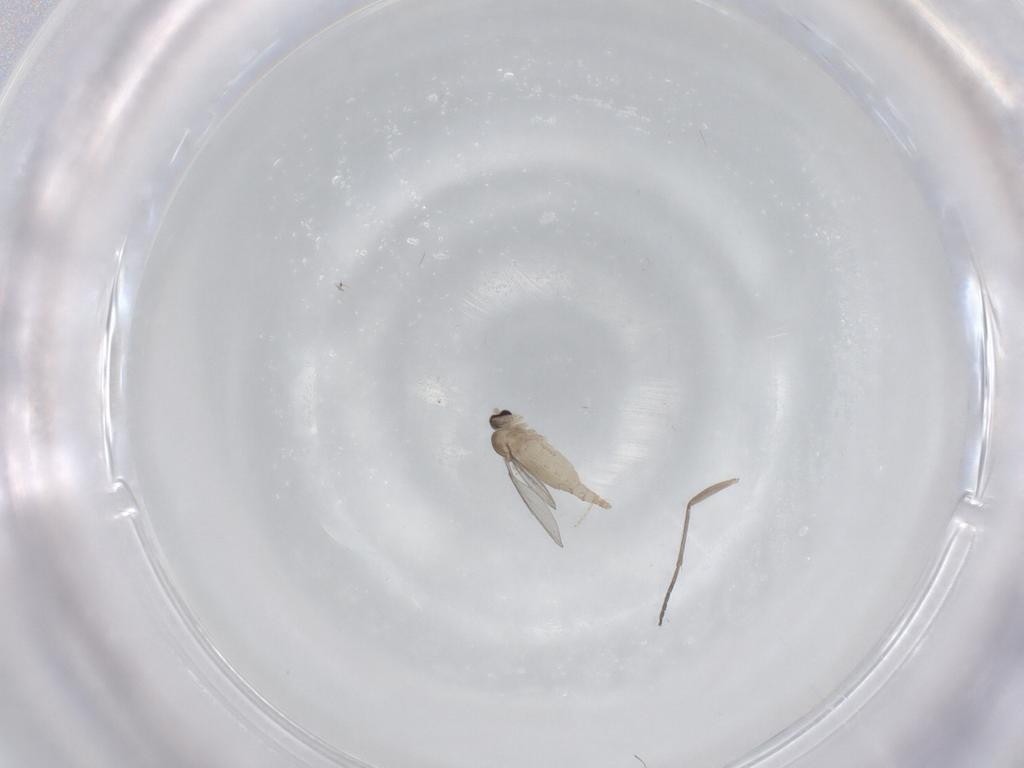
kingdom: Animalia
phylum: Arthropoda
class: Insecta
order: Diptera
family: Cecidomyiidae
